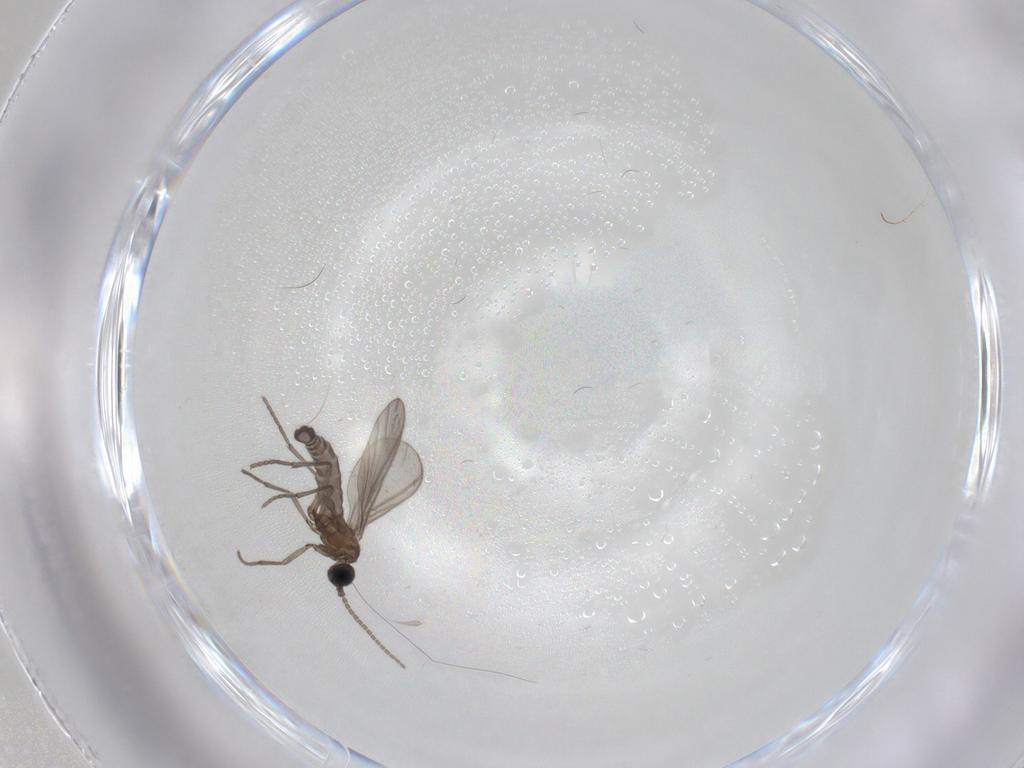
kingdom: Animalia
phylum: Arthropoda
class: Insecta
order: Diptera
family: Sciaridae
